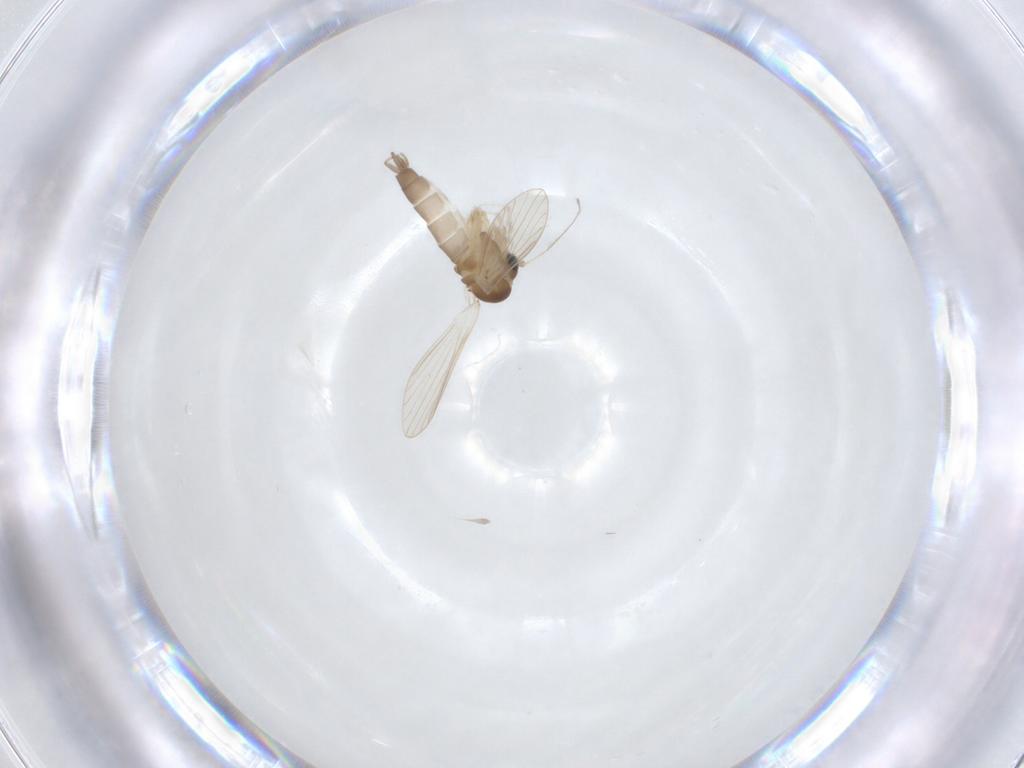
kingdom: Animalia
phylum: Arthropoda
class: Insecta
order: Diptera
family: Psychodidae
